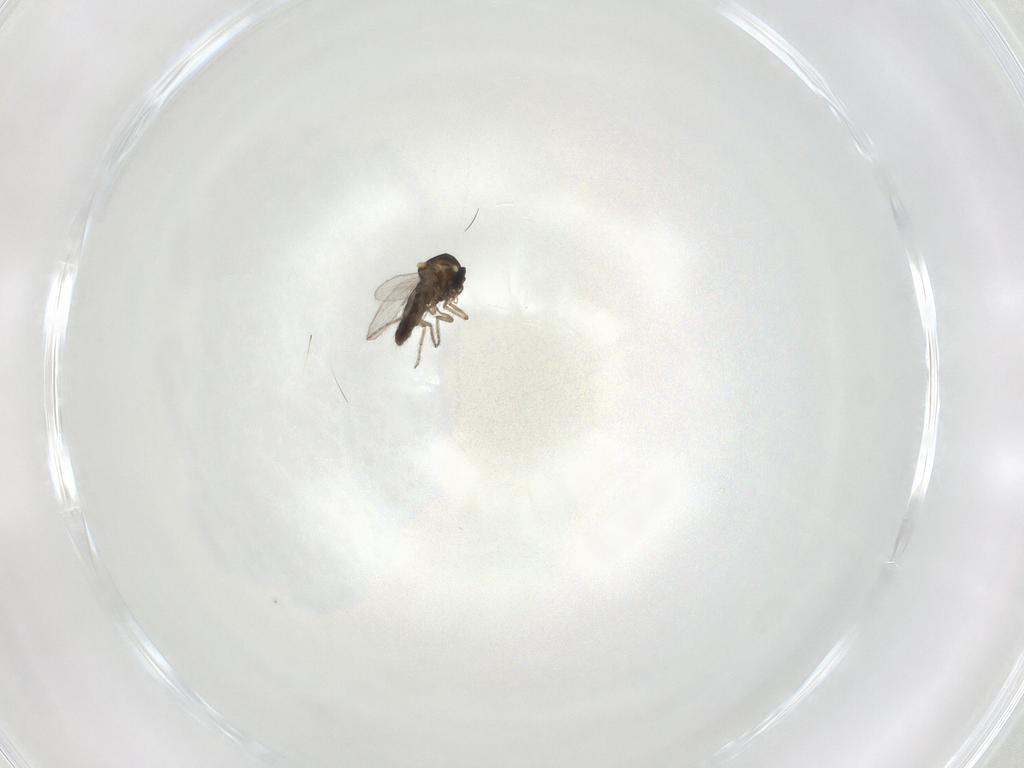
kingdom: Animalia
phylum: Arthropoda
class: Insecta
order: Diptera
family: Ceratopogonidae
